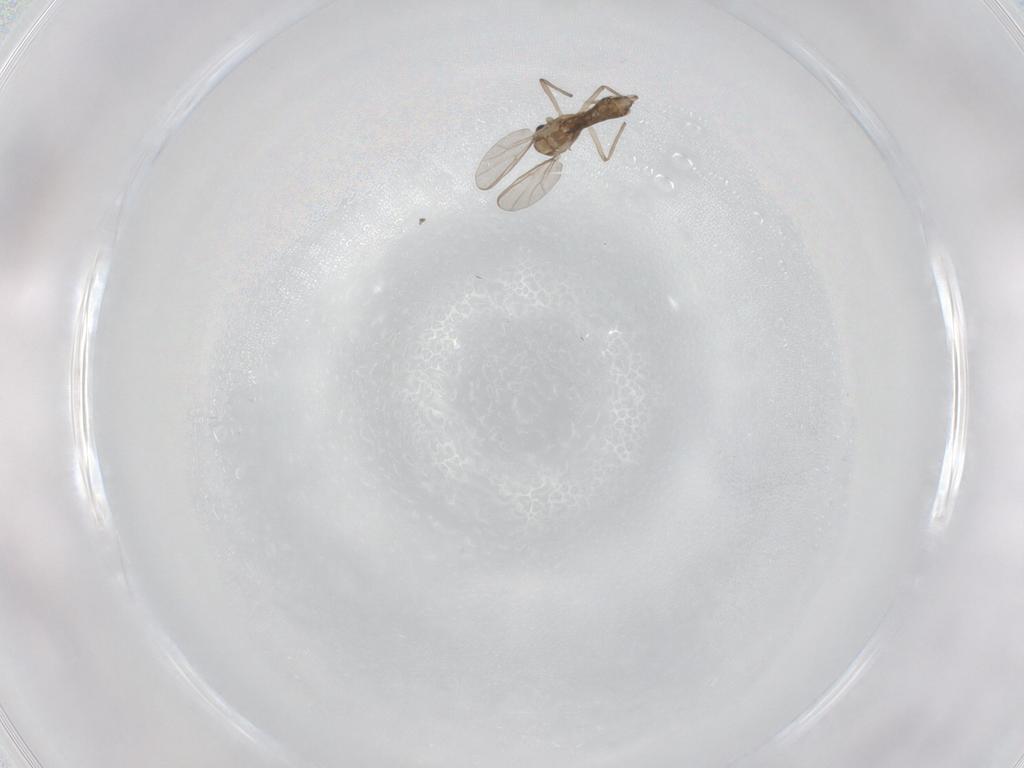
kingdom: Animalia
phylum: Arthropoda
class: Insecta
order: Diptera
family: Chironomidae
